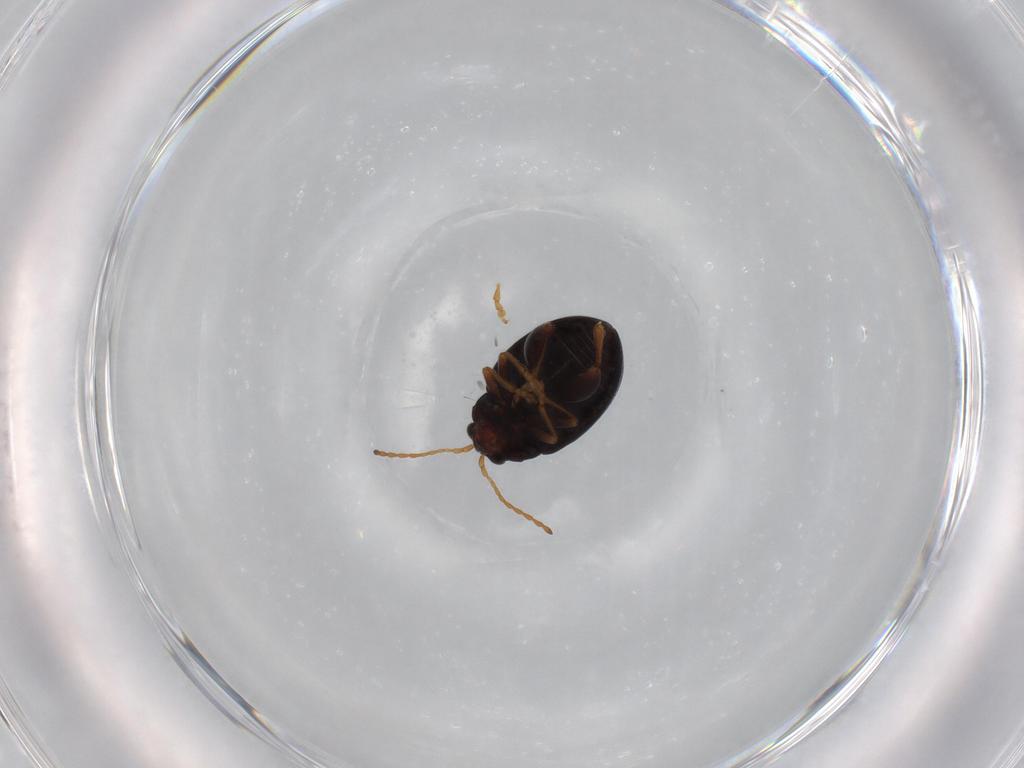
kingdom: Animalia
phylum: Arthropoda
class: Insecta
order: Coleoptera
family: Chrysomelidae
